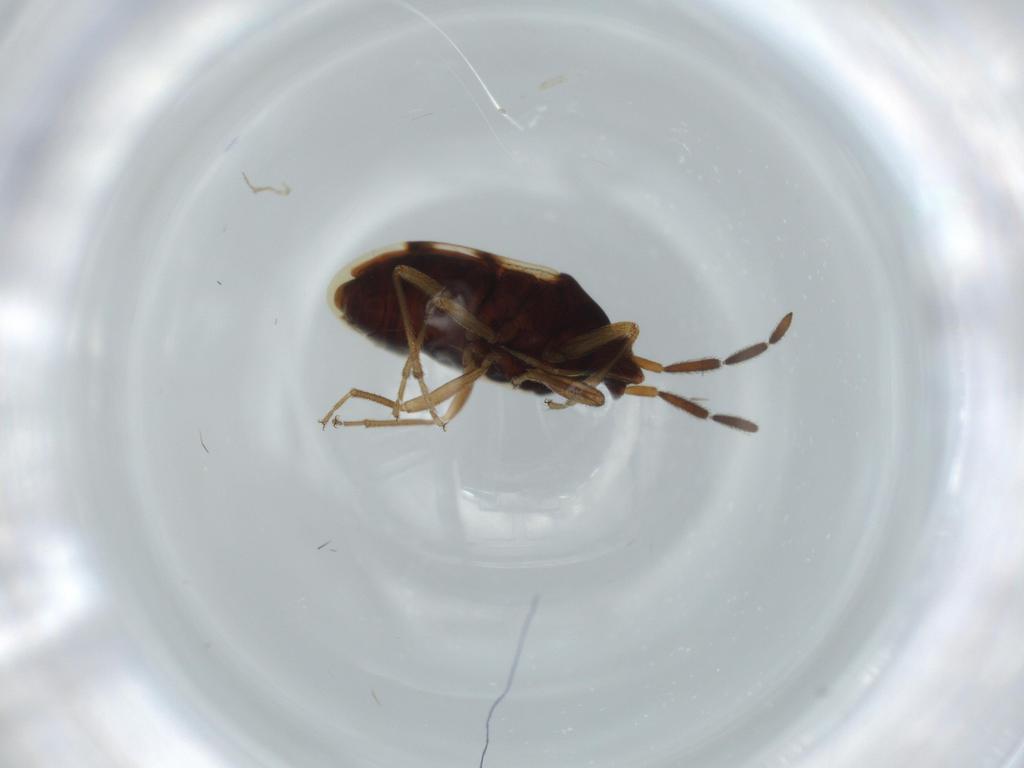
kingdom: Animalia
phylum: Arthropoda
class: Insecta
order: Hemiptera
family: Rhyparochromidae
